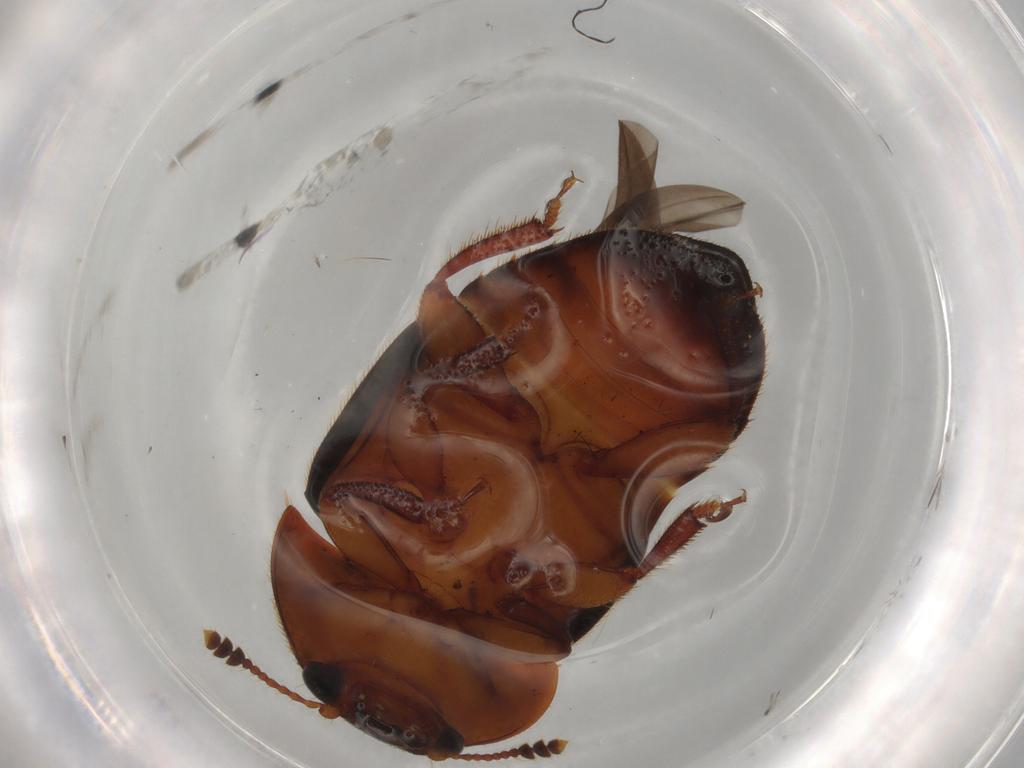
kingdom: Animalia
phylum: Arthropoda
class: Insecta
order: Coleoptera
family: Nitidulidae
